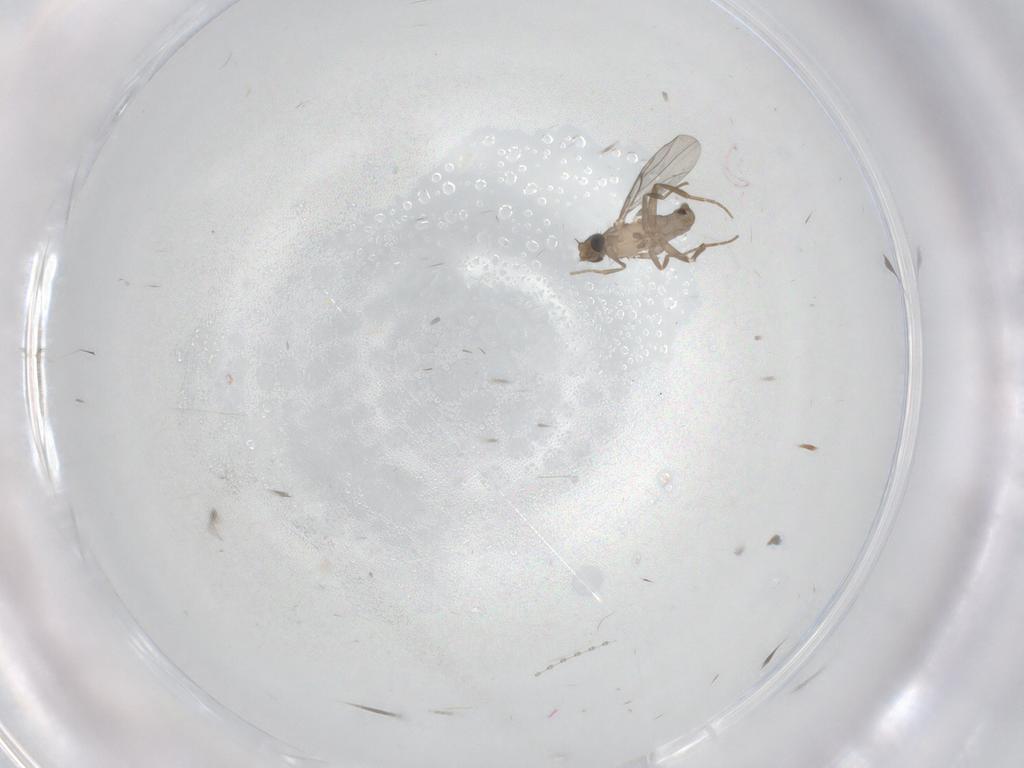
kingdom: Animalia
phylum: Arthropoda
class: Insecta
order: Diptera
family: Cecidomyiidae
